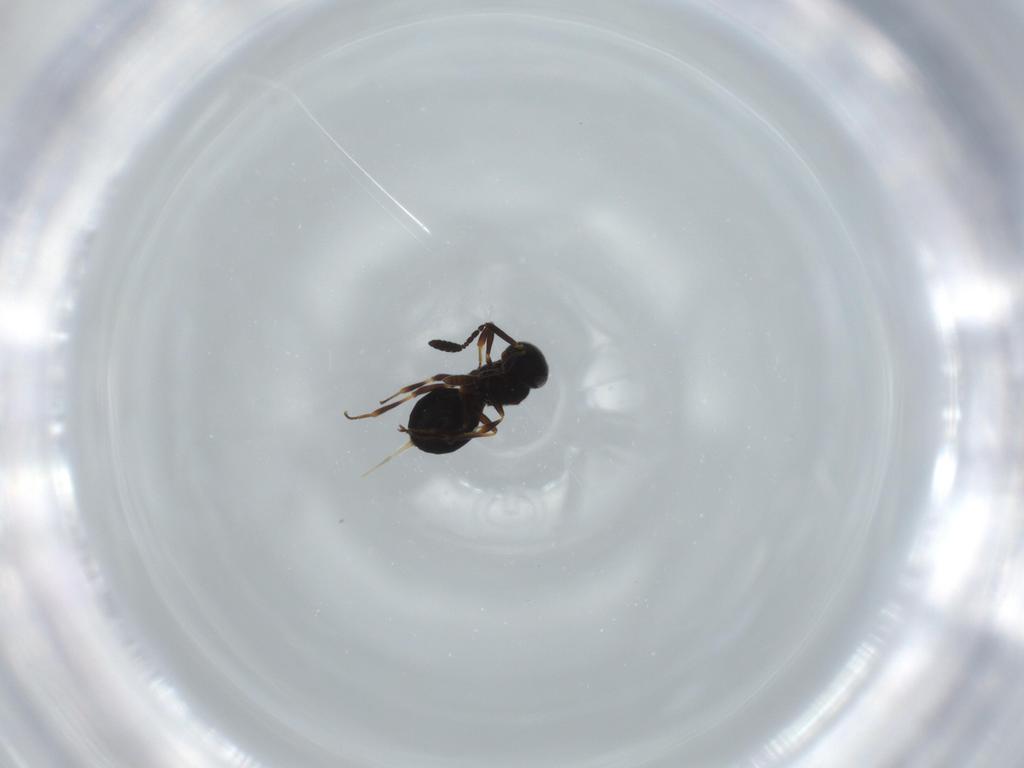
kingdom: Animalia
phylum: Arthropoda
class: Insecta
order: Hymenoptera
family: Scelionidae
